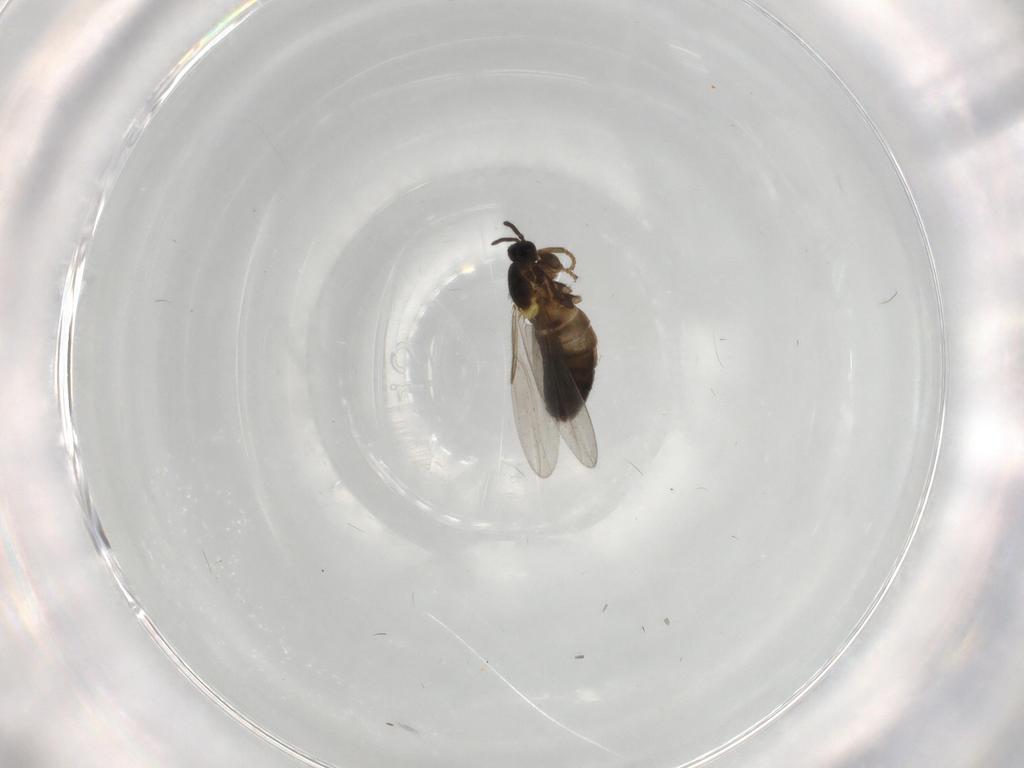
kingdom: Animalia
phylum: Arthropoda
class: Insecta
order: Diptera
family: Scatopsidae
